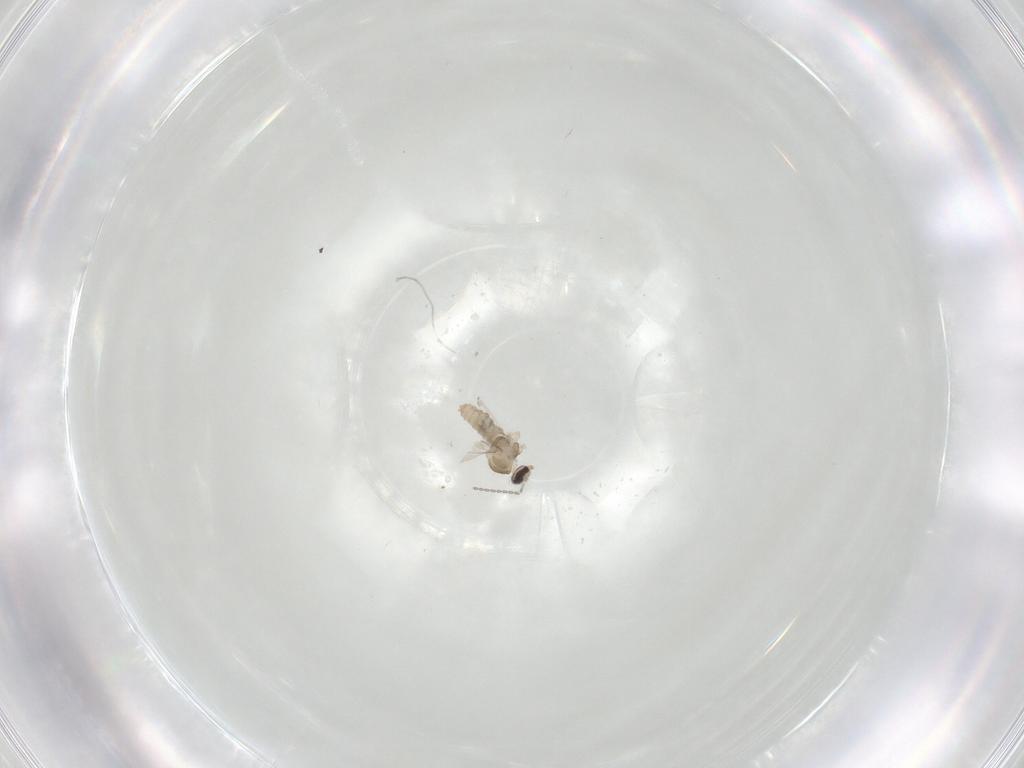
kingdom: Animalia
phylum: Arthropoda
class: Insecta
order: Diptera
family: Cecidomyiidae
